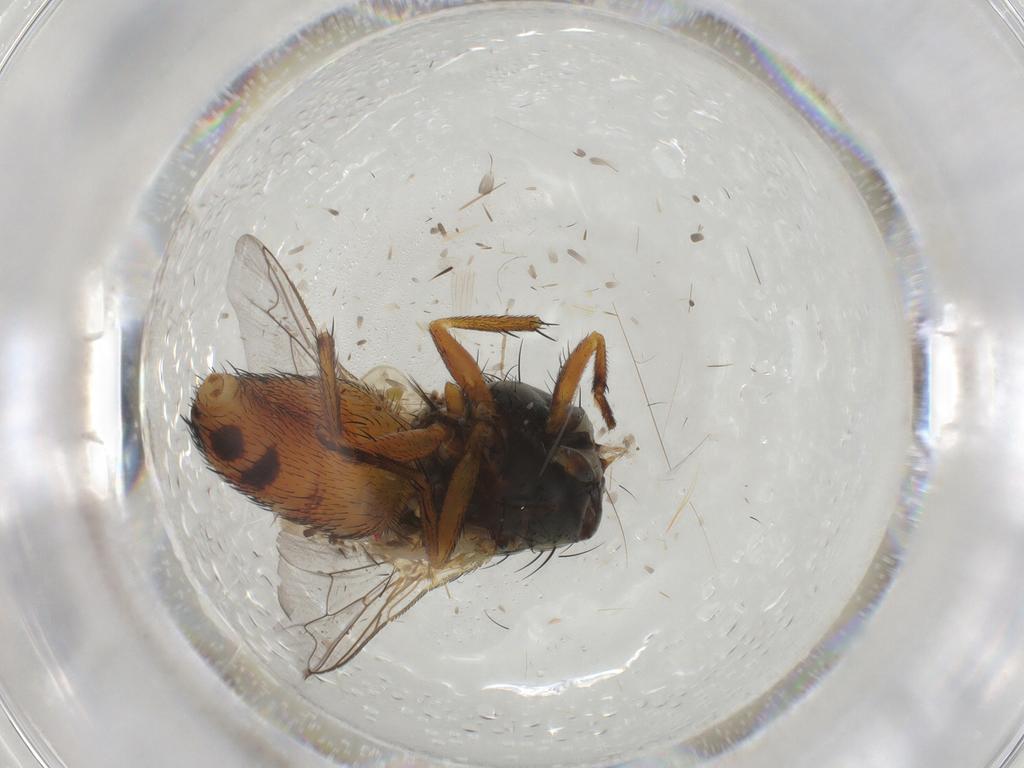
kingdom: Animalia
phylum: Arthropoda
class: Insecta
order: Diptera
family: Sarcophagidae
